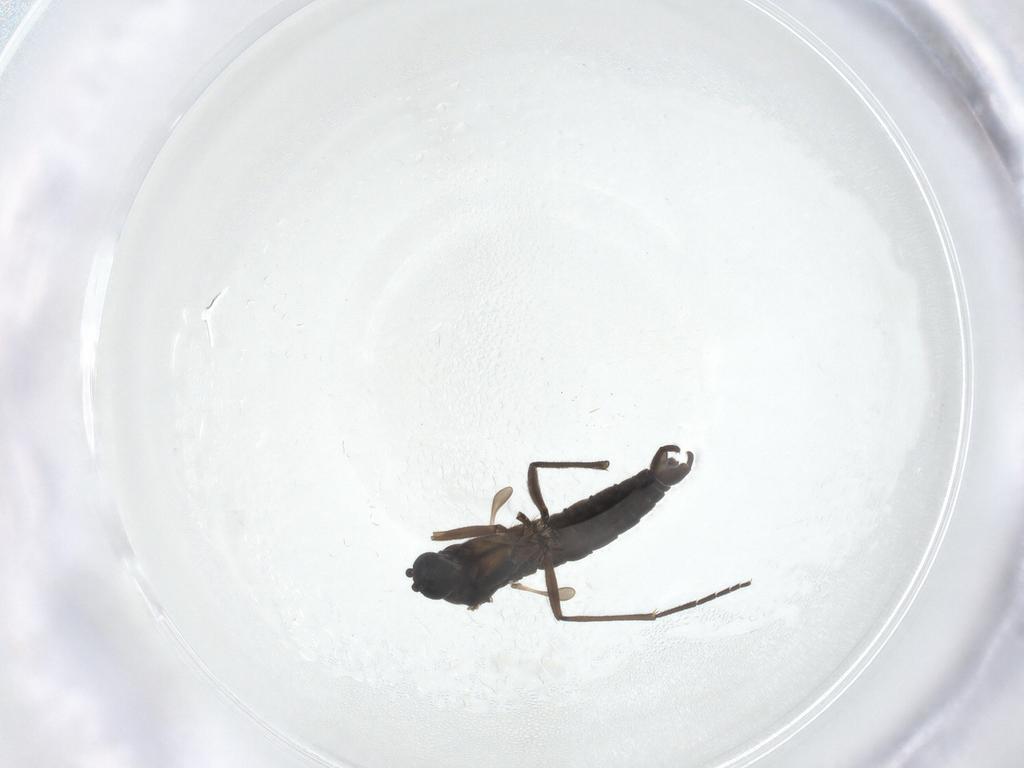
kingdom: Animalia
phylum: Arthropoda
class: Insecta
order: Diptera
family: Sciaridae
